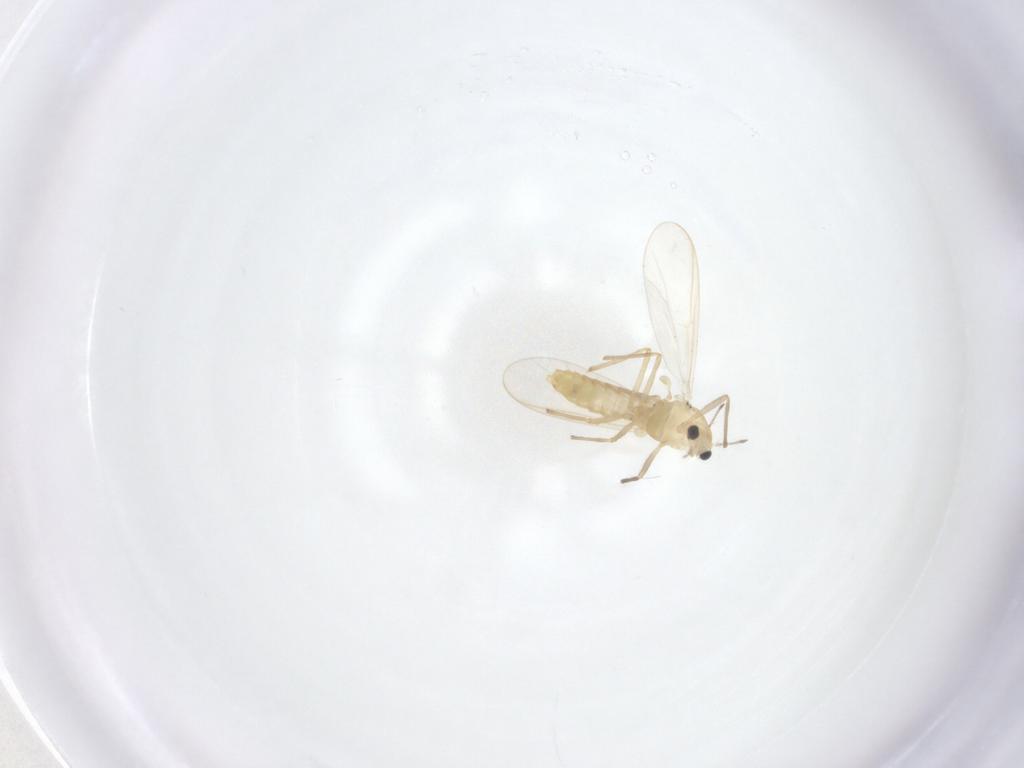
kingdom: Animalia
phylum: Arthropoda
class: Insecta
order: Diptera
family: Chironomidae
